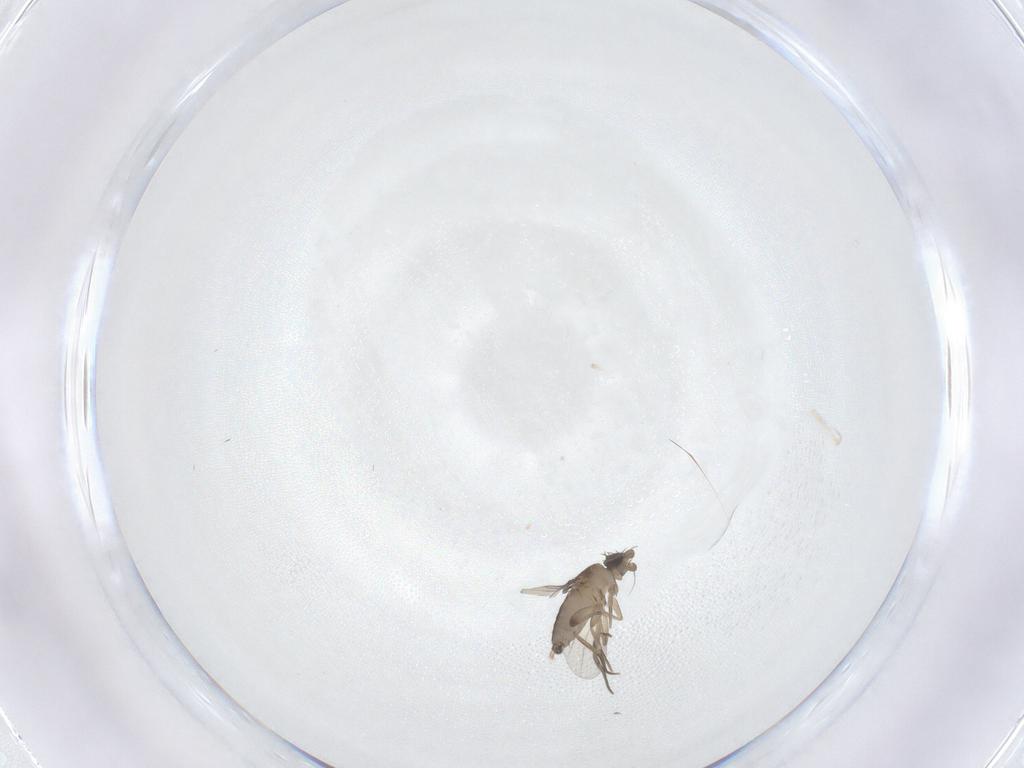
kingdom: Animalia
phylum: Arthropoda
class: Insecta
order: Diptera
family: Phoridae
